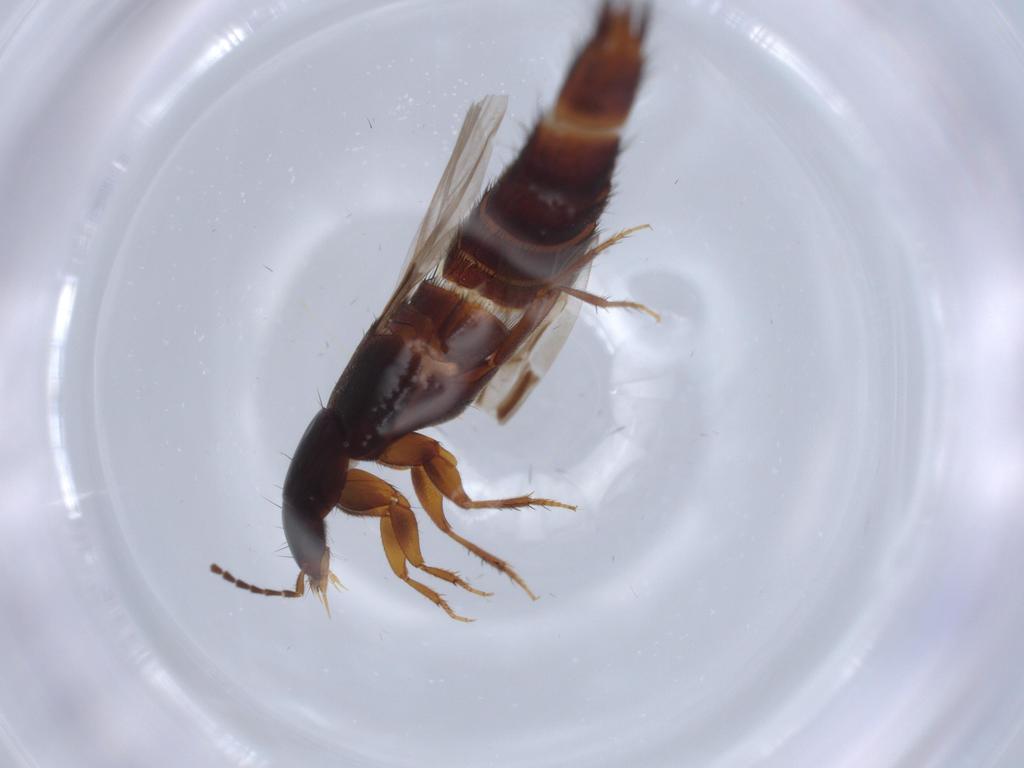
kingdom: Animalia
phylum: Arthropoda
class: Insecta
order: Coleoptera
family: Staphylinidae
